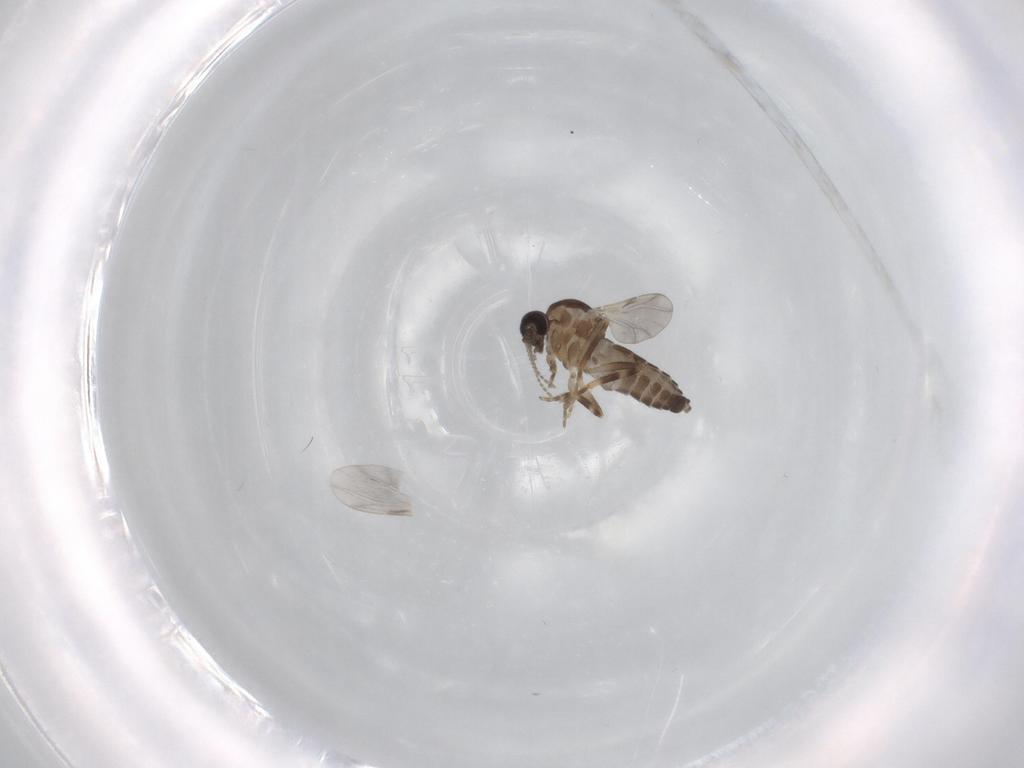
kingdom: Animalia
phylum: Arthropoda
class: Insecta
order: Diptera
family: Ceratopogonidae
